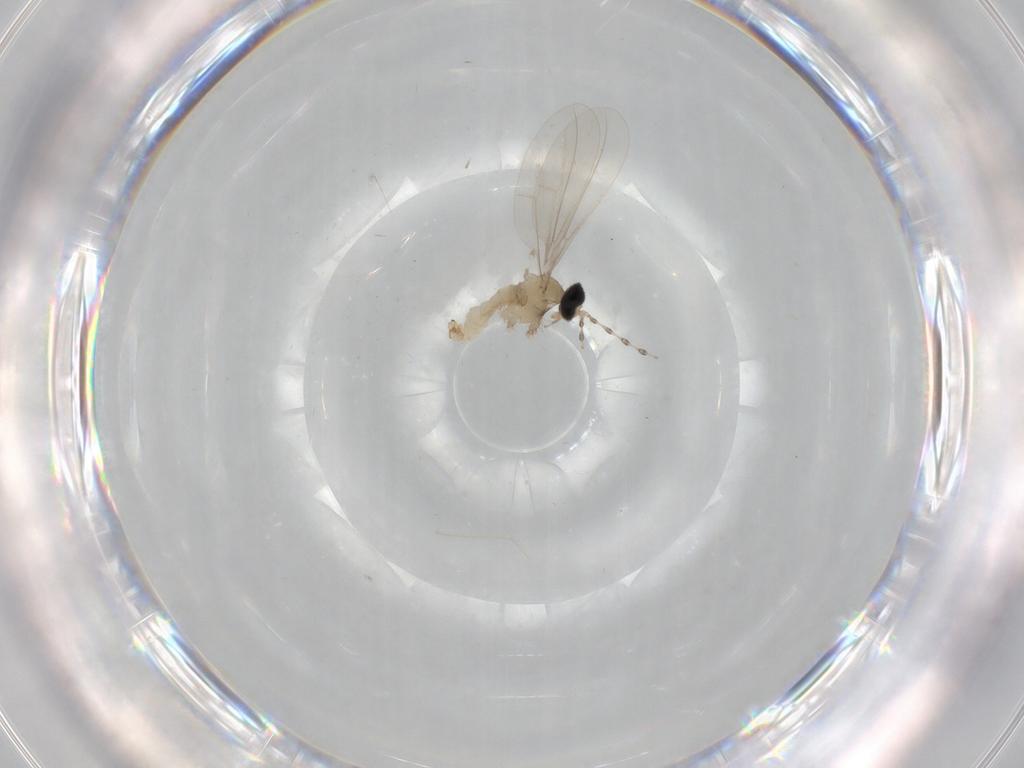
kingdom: Animalia
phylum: Arthropoda
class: Insecta
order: Diptera
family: Cecidomyiidae
